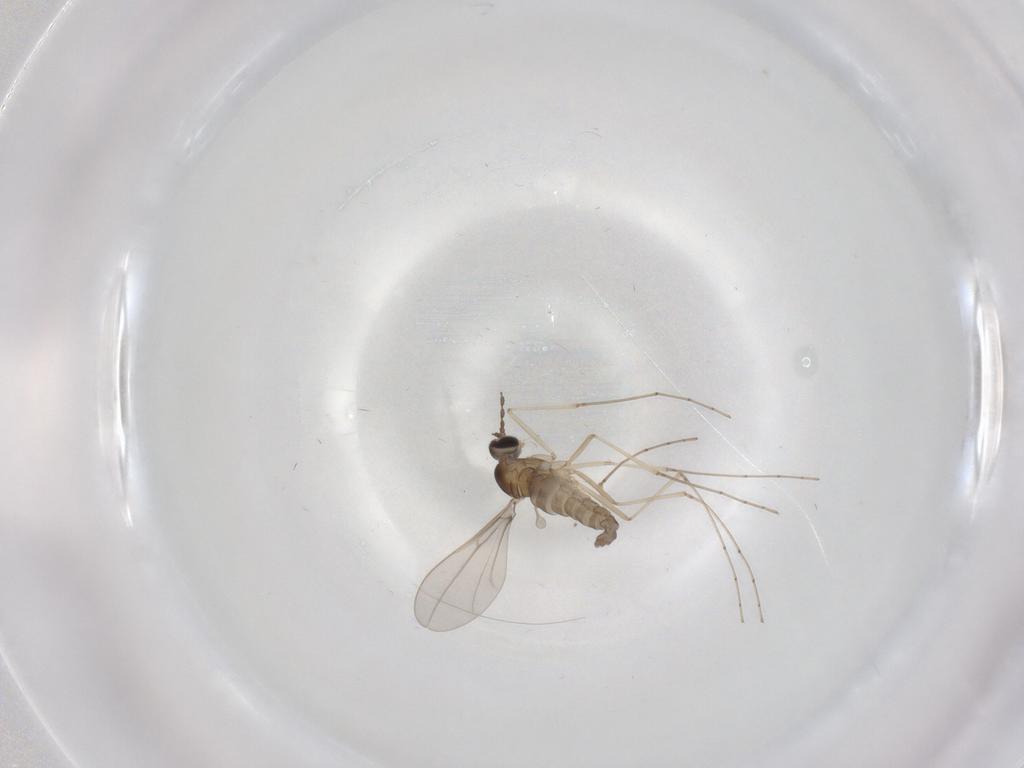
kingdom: Animalia
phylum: Arthropoda
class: Insecta
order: Diptera
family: Cecidomyiidae
